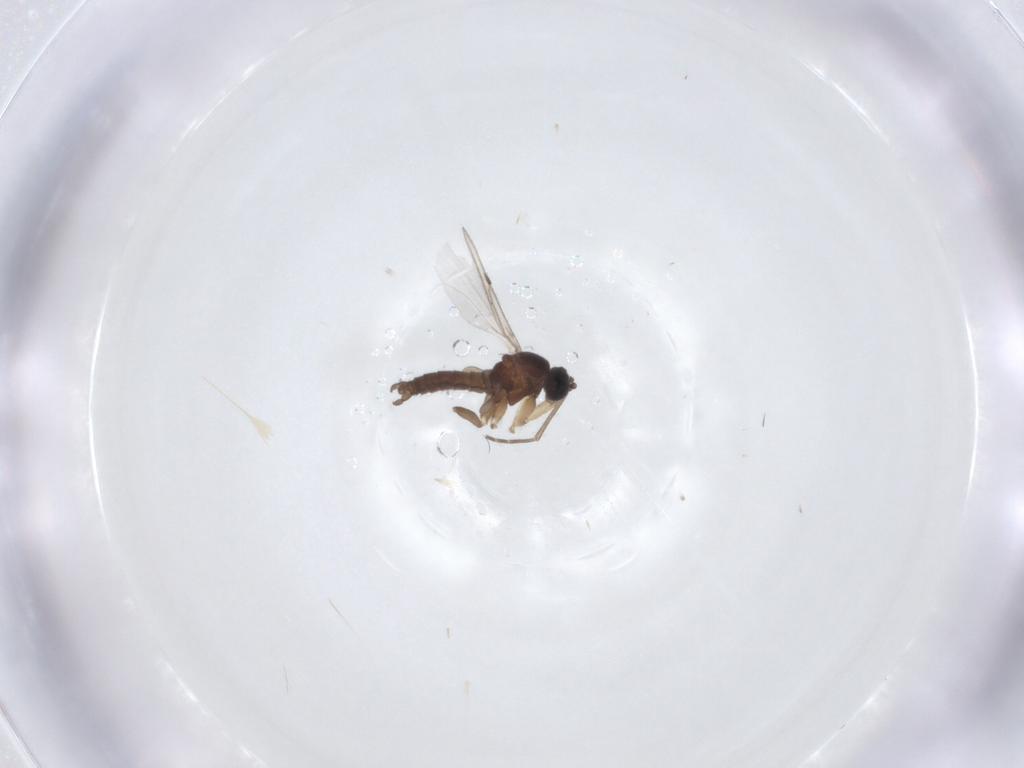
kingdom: Animalia
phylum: Arthropoda
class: Insecta
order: Diptera
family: Sciaridae
